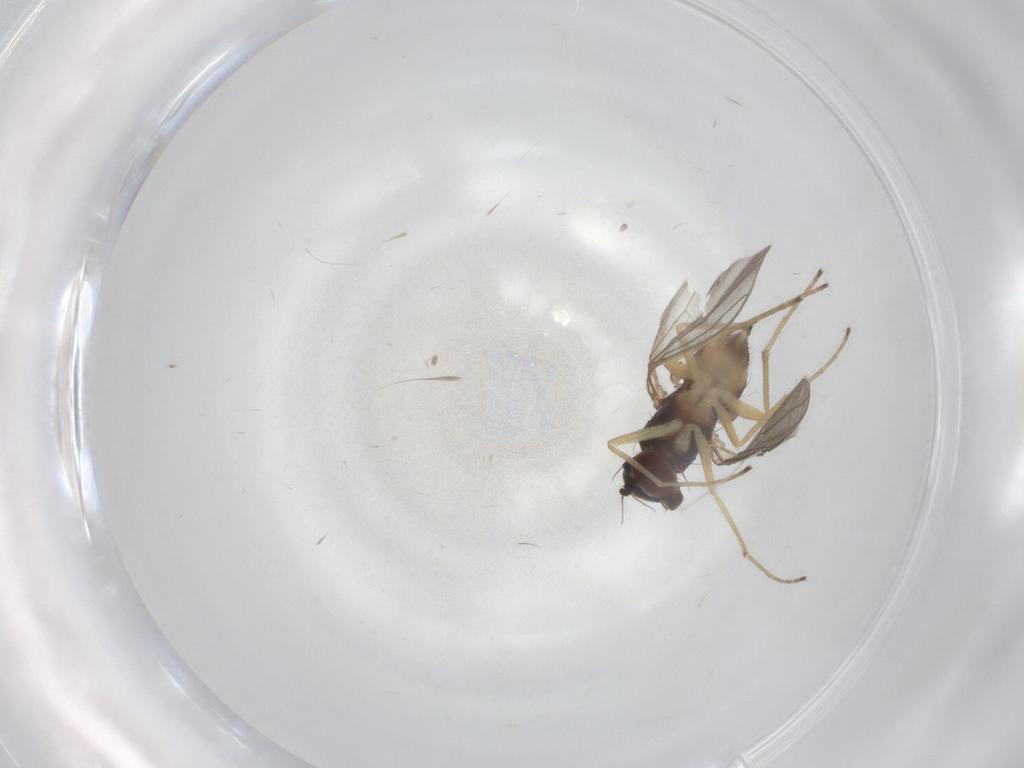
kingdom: Animalia
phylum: Arthropoda
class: Insecta
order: Diptera
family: Dolichopodidae
